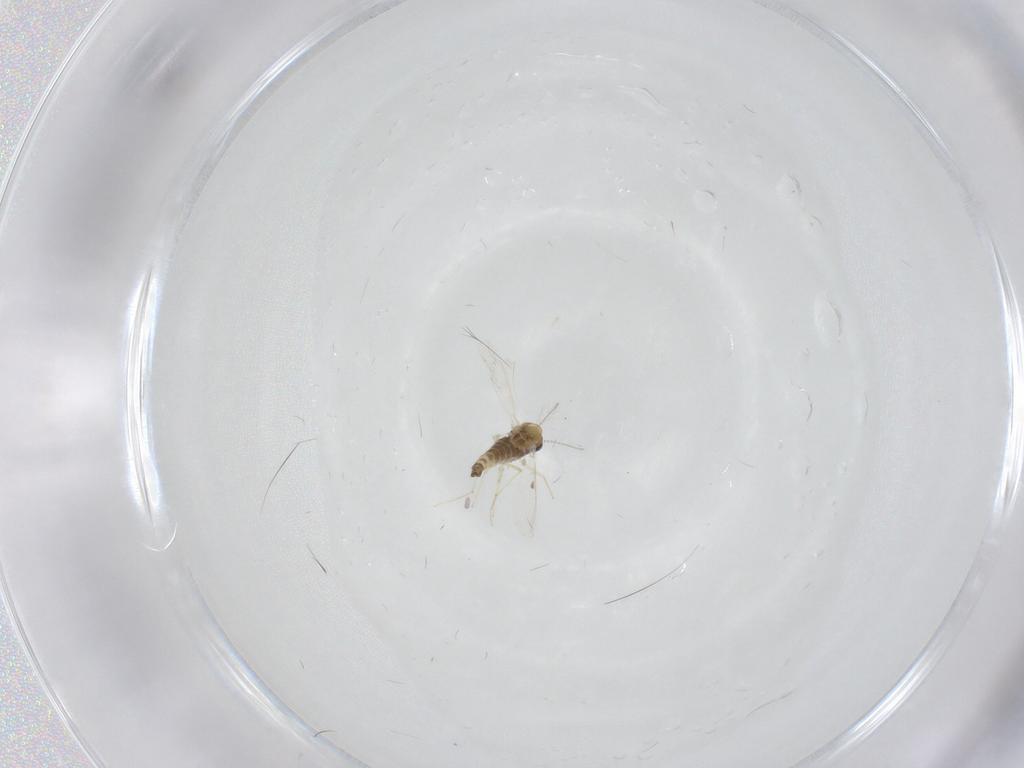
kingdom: Animalia
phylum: Arthropoda
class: Insecta
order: Diptera
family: Chironomidae
